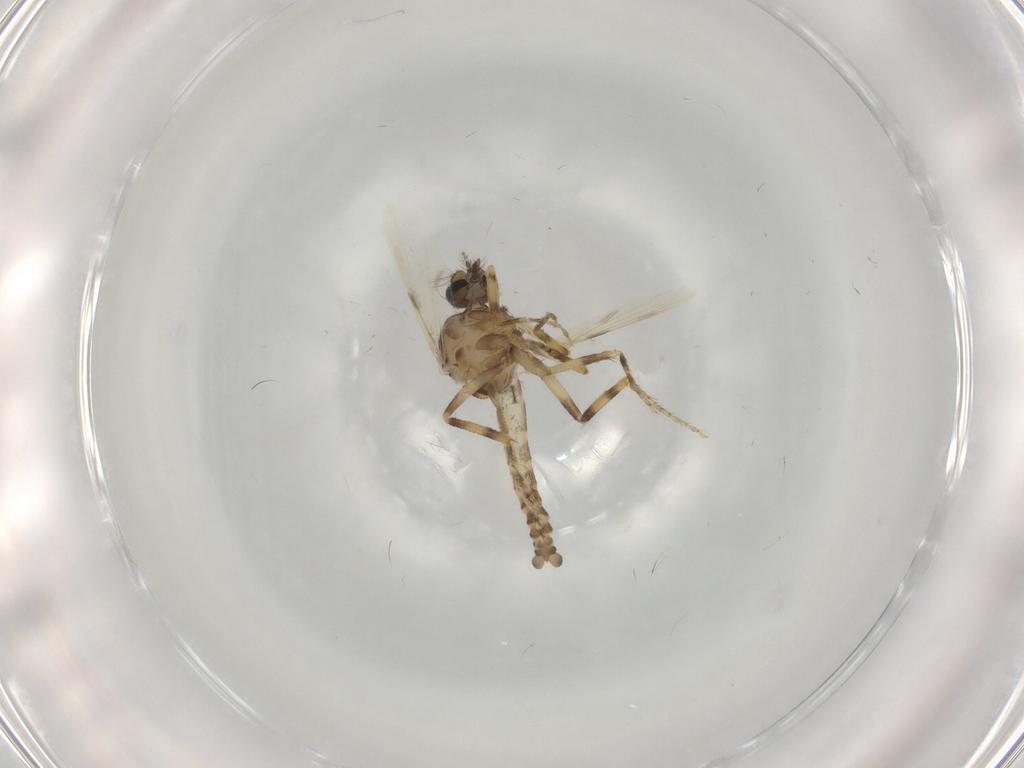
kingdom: Animalia
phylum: Arthropoda
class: Insecta
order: Diptera
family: Ceratopogonidae
